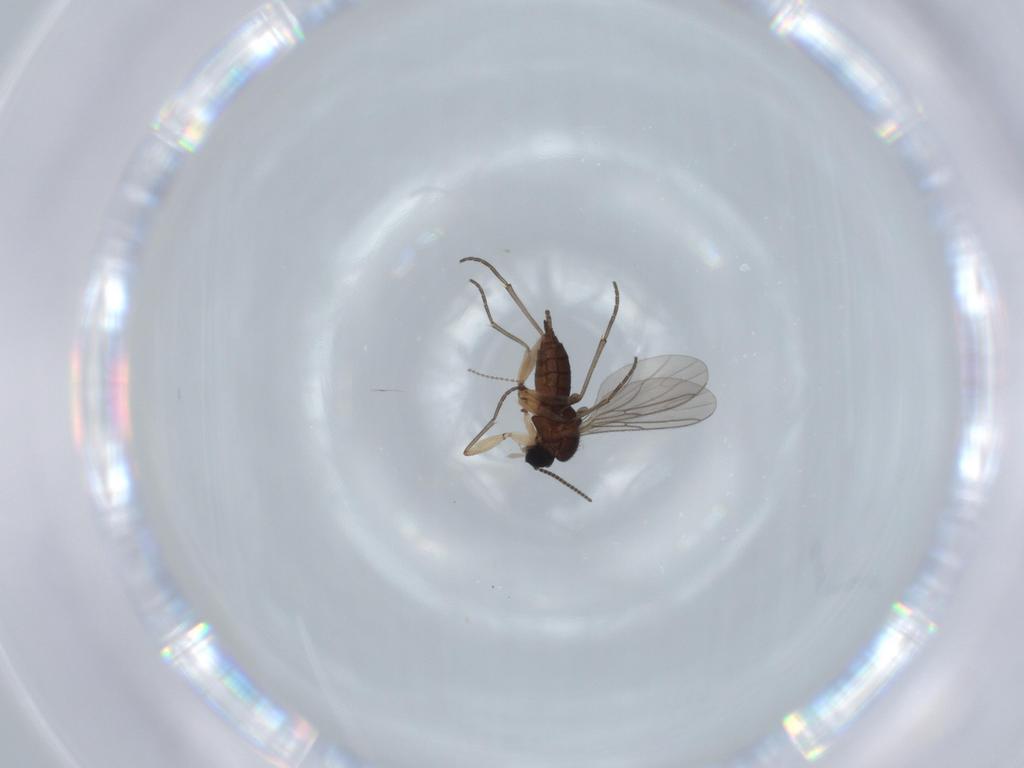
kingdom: Animalia
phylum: Arthropoda
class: Insecta
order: Diptera
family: Sciaridae
